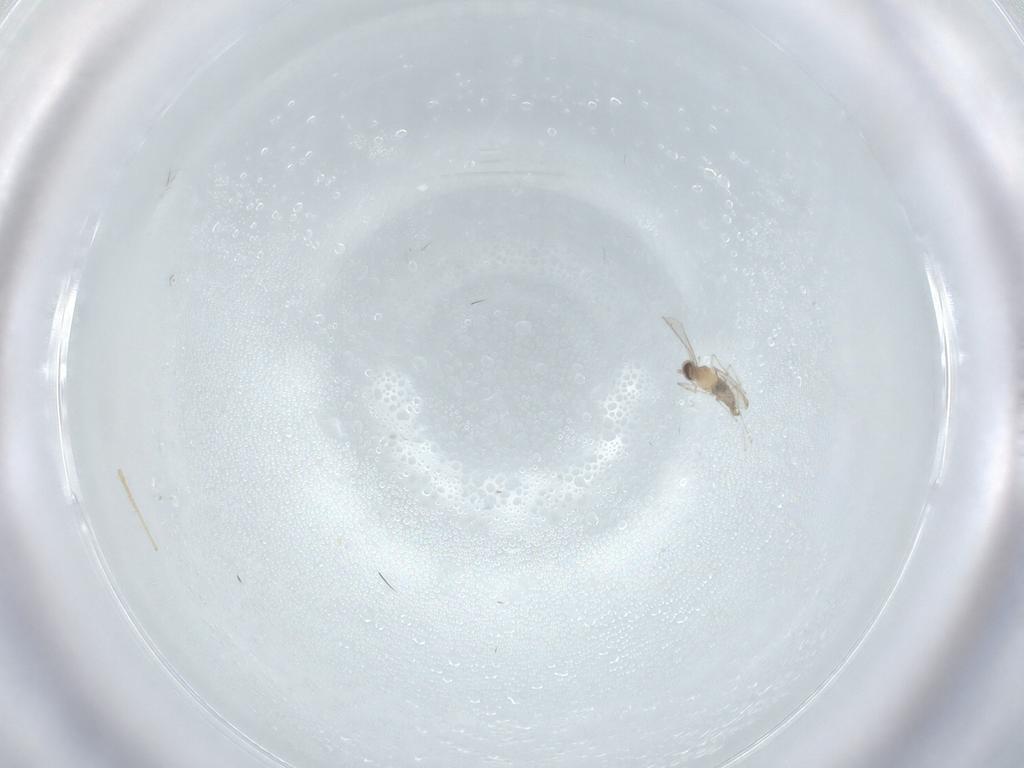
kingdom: Animalia
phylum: Arthropoda
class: Insecta
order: Diptera
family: Cecidomyiidae
